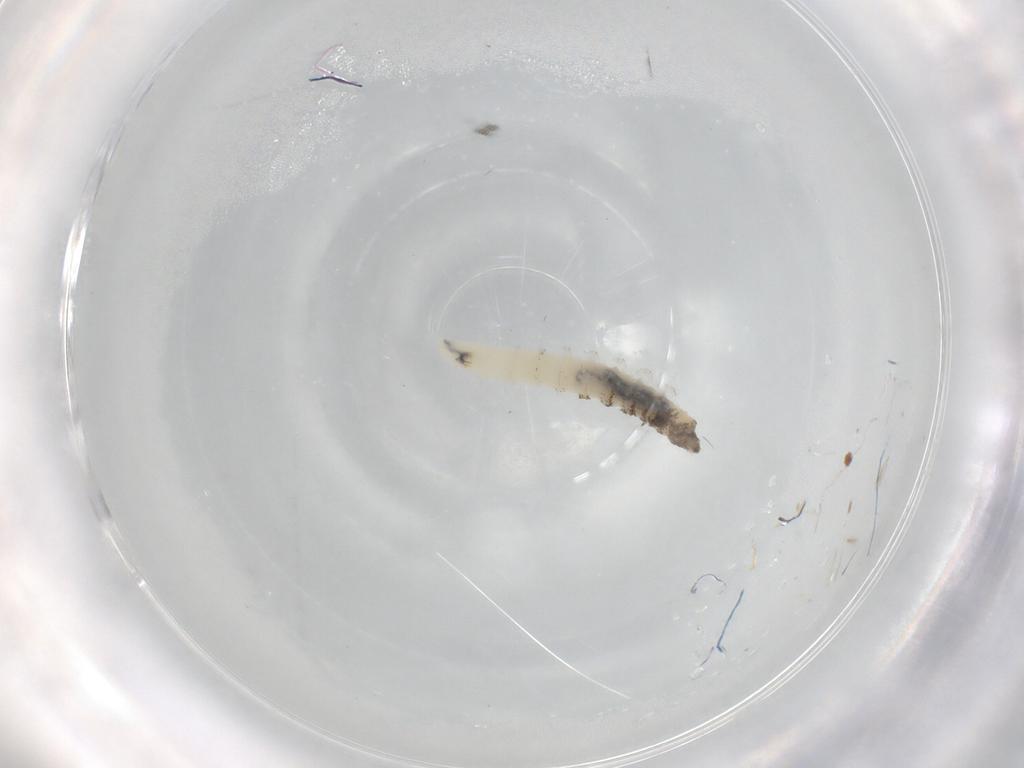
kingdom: Animalia
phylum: Arthropoda
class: Insecta
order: Diptera
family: Cecidomyiidae
